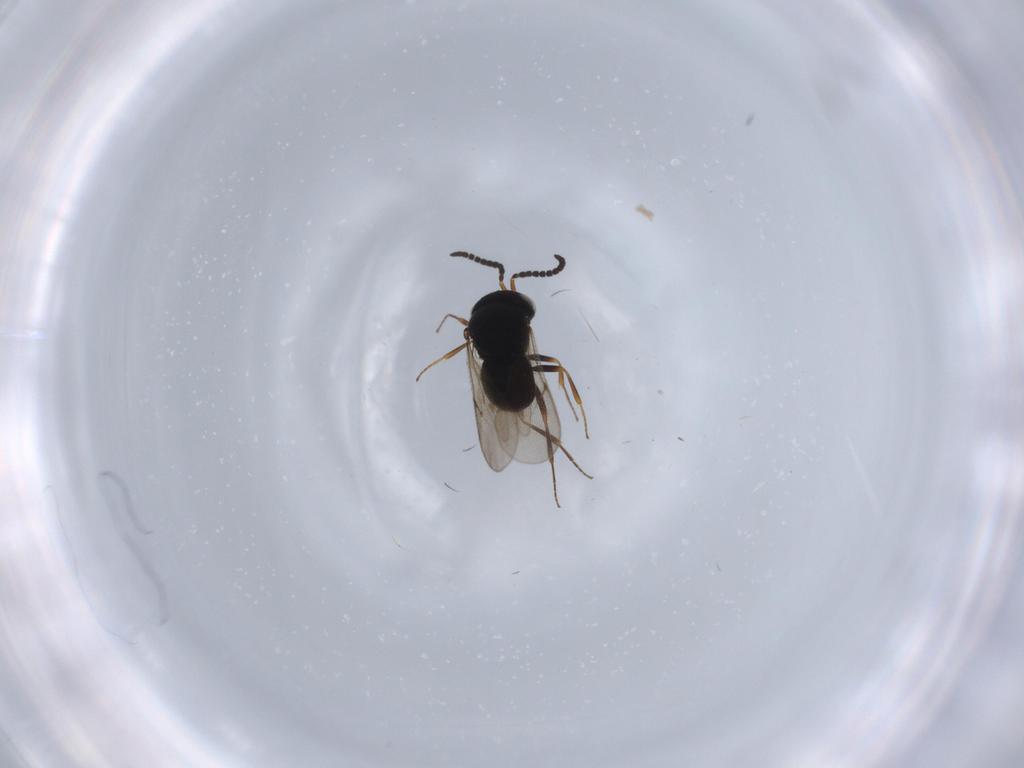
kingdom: Animalia
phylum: Arthropoda
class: Insecta
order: Hymenoptera
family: Scelionidae
